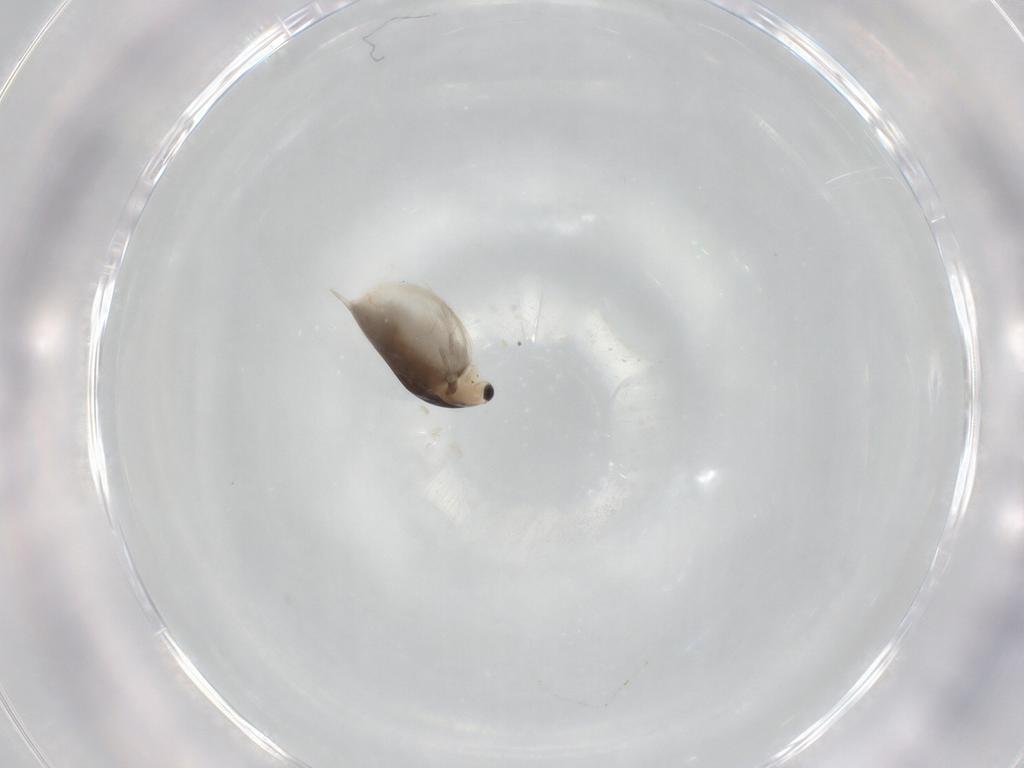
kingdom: Animalia
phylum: Arthropoda
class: Branchiopoda
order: Diplostraca
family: Daphniidae
